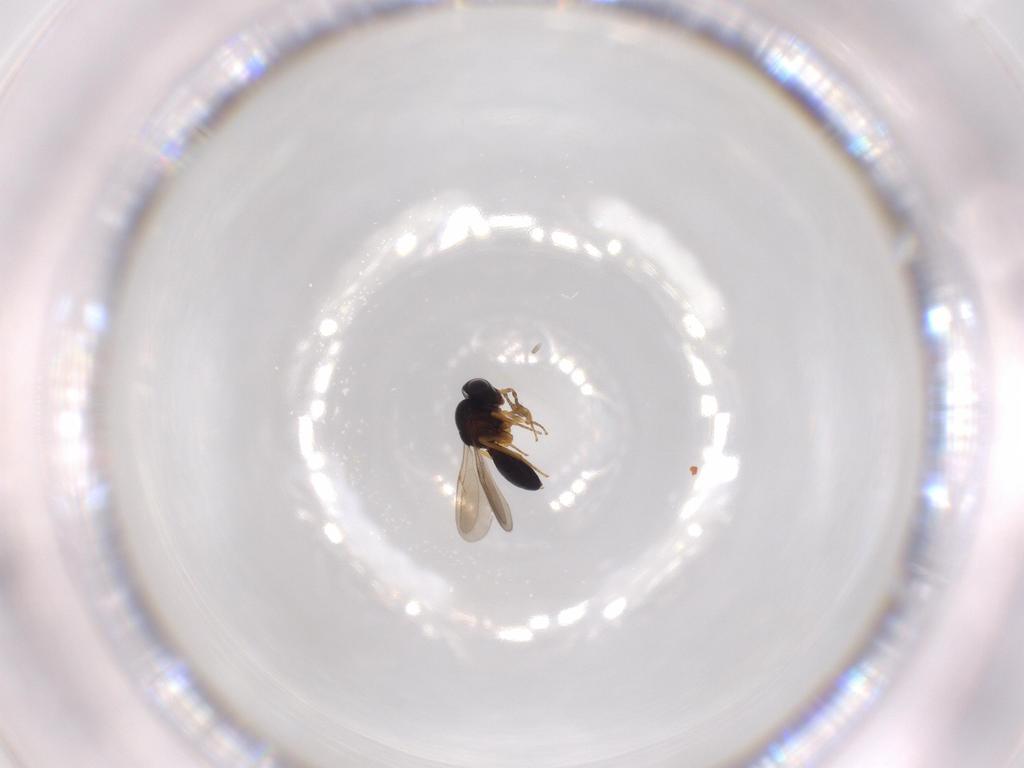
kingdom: Animalia
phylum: Arthropoda
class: Insecta
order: Hymenoptera
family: Scelionidae
